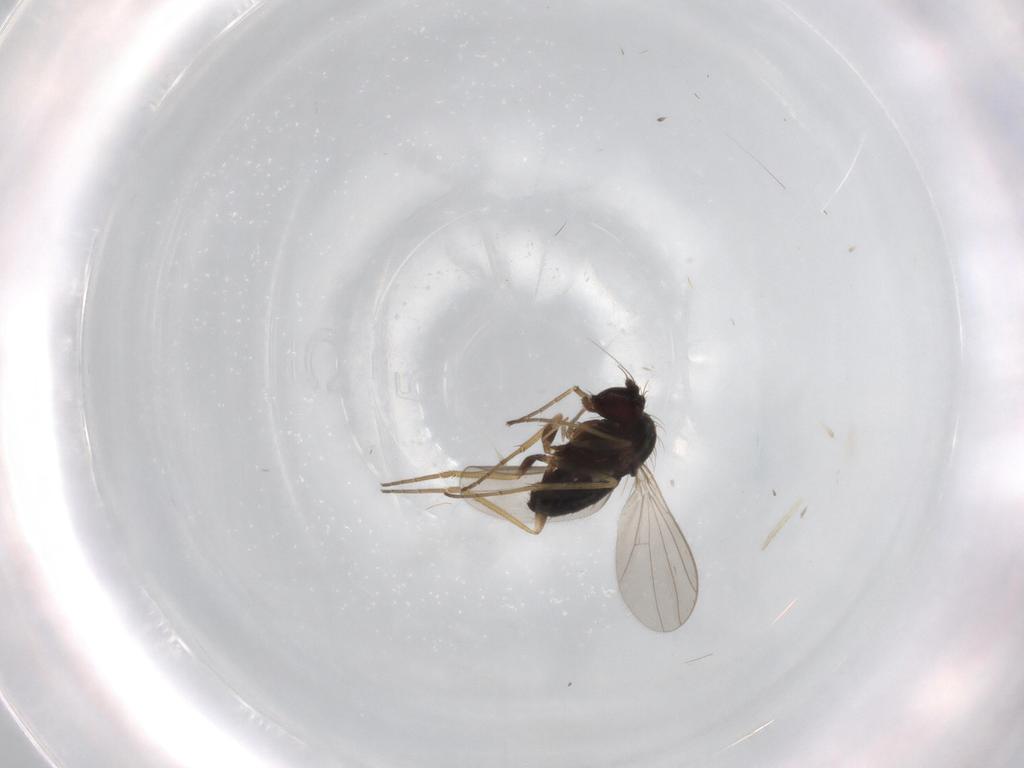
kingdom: Animalia
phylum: Arthropoda
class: Insecta
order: Diptera
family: Sciaridae
